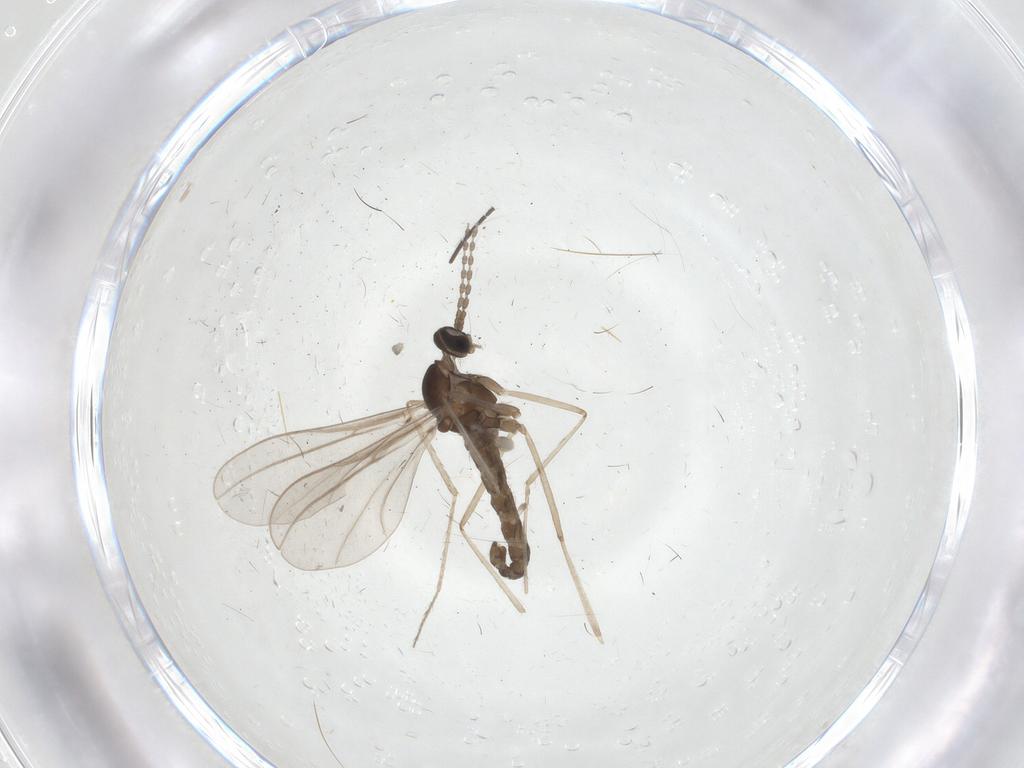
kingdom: Animalia
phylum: Arthropoda
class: Insecta
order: Diptera
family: Cecidomyiidae
